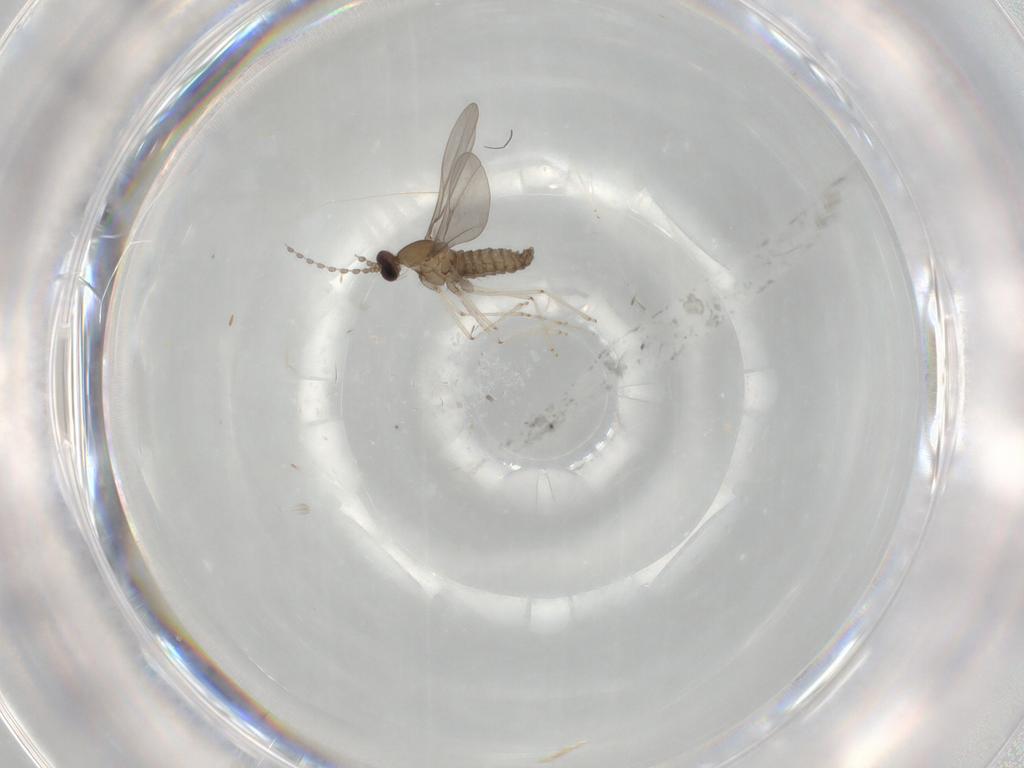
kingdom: Animalia
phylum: Arthropoda
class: Insecta
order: Diptera
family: Cecidomyiidae
